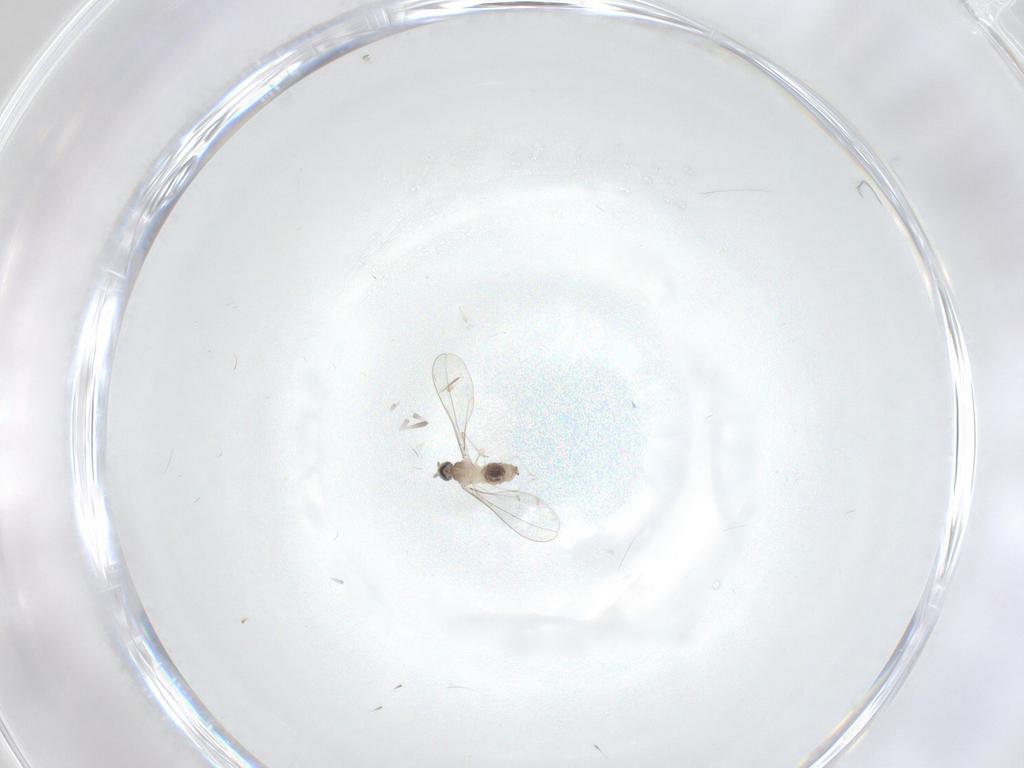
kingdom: Animalia
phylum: Arthropoda
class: Insecta
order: Diptera
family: Cecidomyiidae
